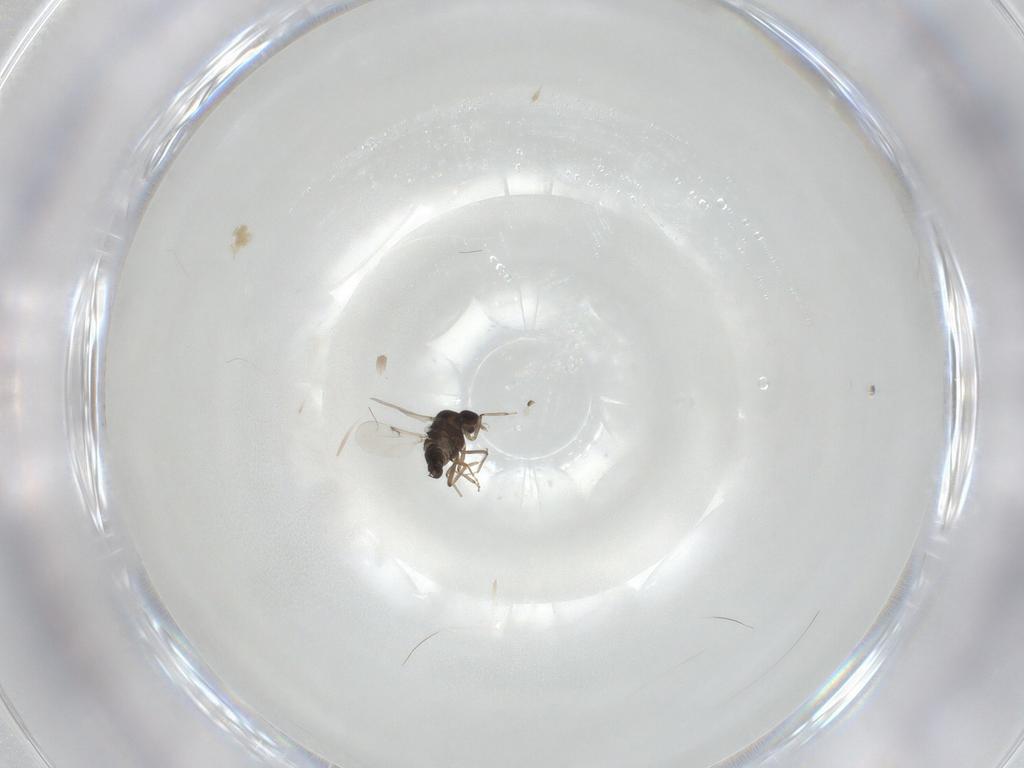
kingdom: Animalia
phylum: Arthropoda
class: Insecta
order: Diptera
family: Ceratopogonidae
